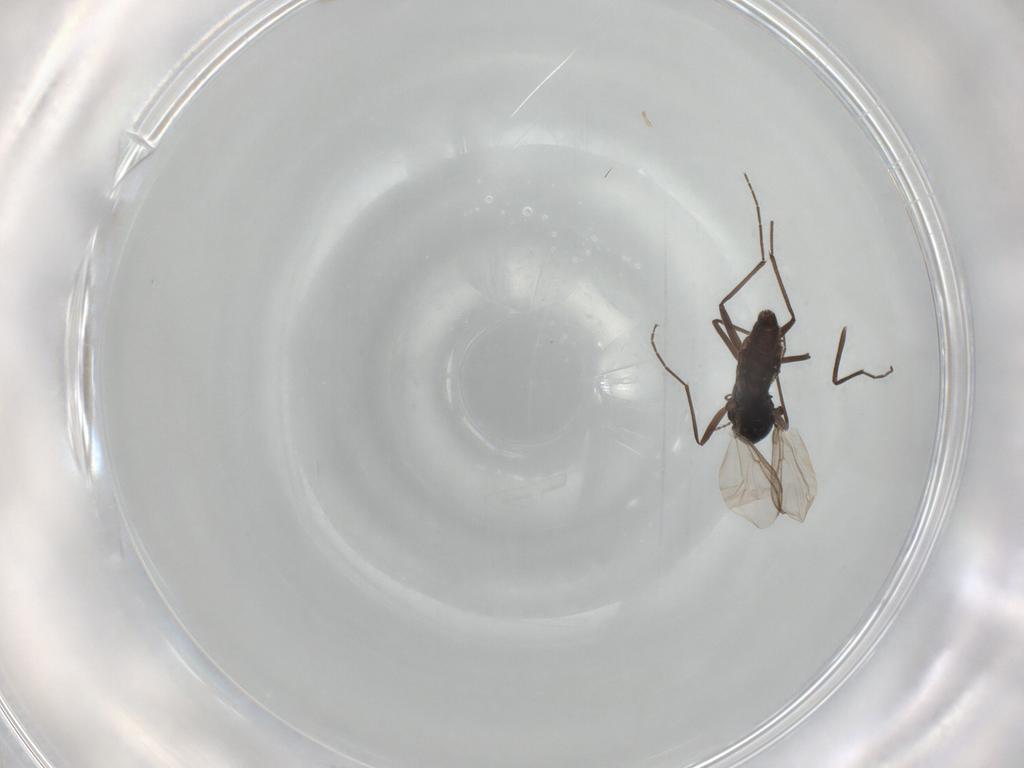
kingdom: Animalia
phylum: Arthropoda
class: Insecta
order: Diptera
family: Chironomidae
